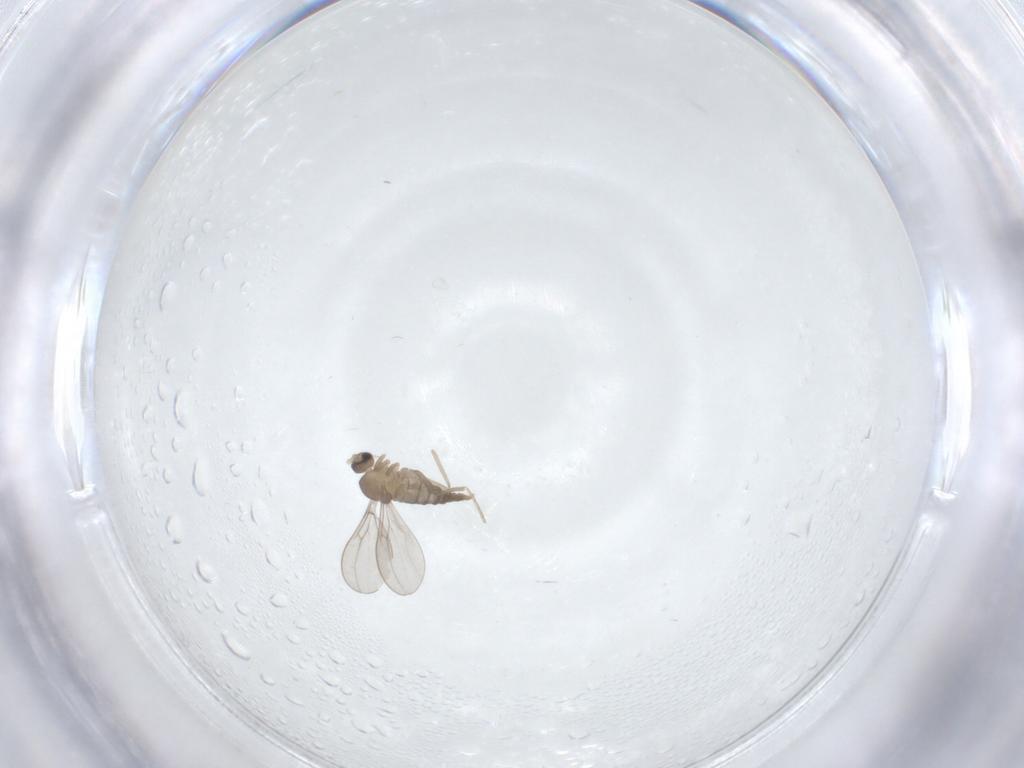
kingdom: Animalia
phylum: Arthropoda
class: Insecta
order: Diptera
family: Cecidomyiidae
